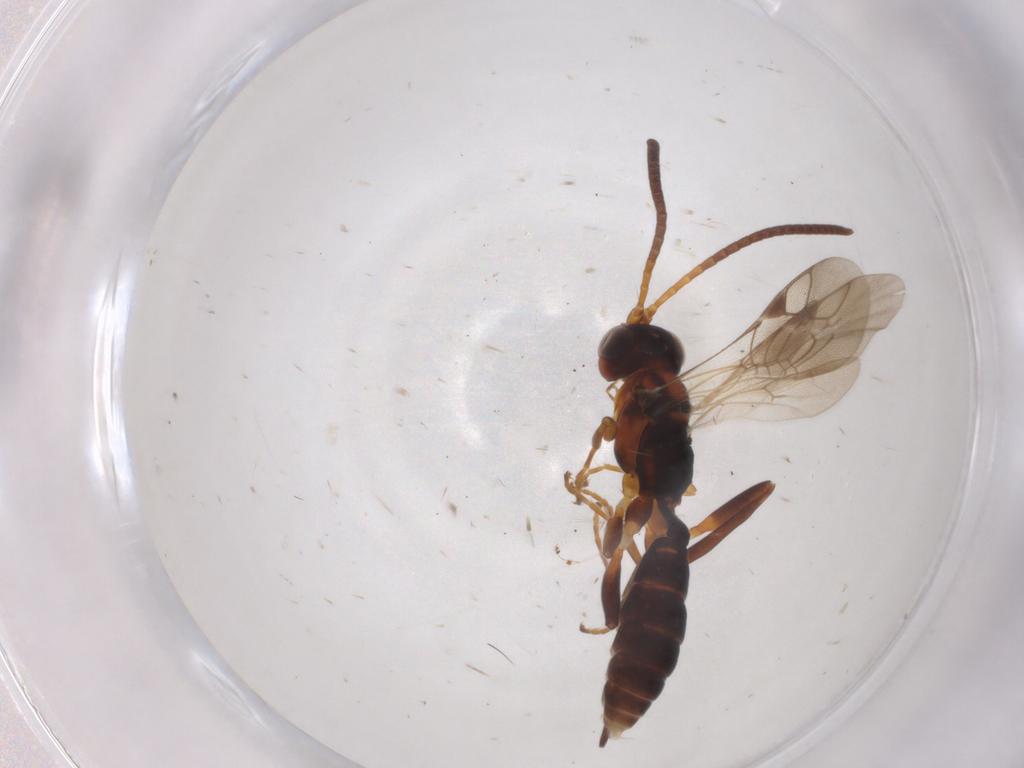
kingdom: Animalia
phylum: Arthropoda
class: Insecta
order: Hymenoptera
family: Ichneumonidae
